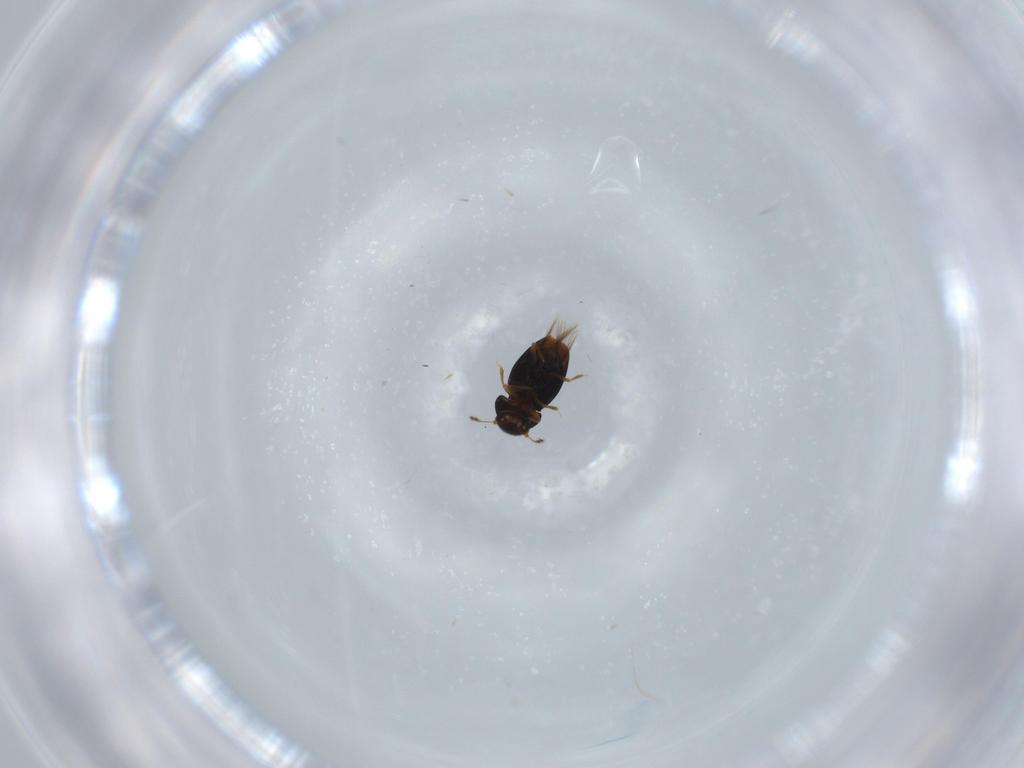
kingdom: Animalia
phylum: Arthropoda
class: Insecta
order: Coleoptera
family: Ptiliidae
